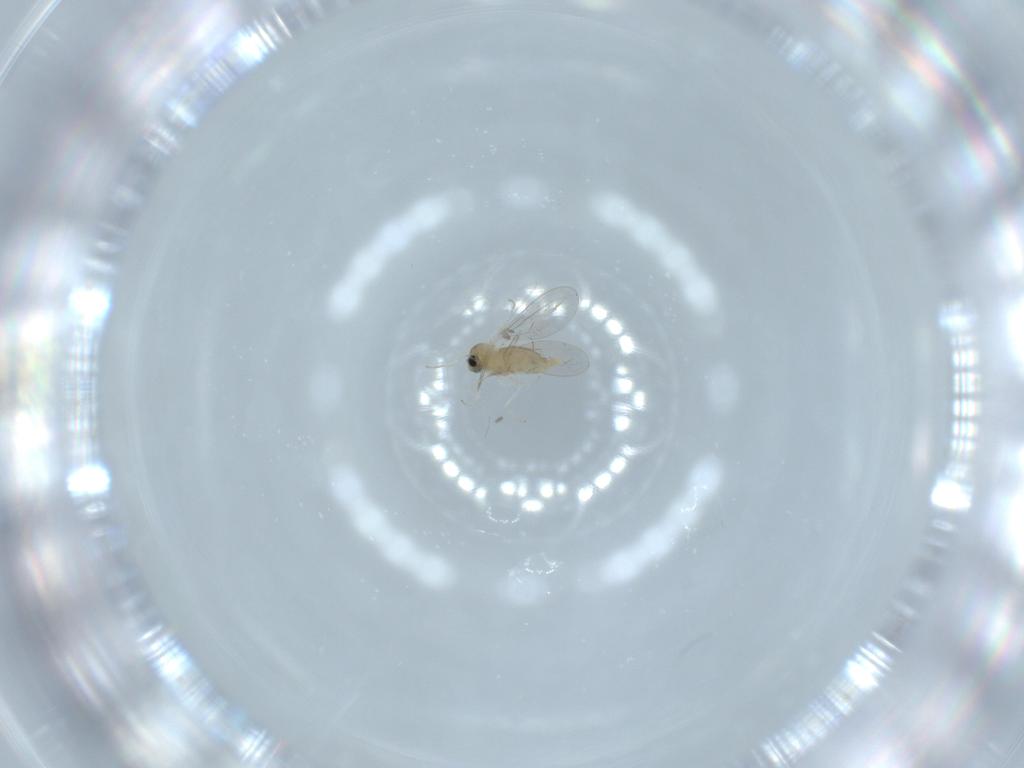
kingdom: Animalia
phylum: Arthropoda
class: Insecta
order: Diptera
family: Cecidomyiidae
